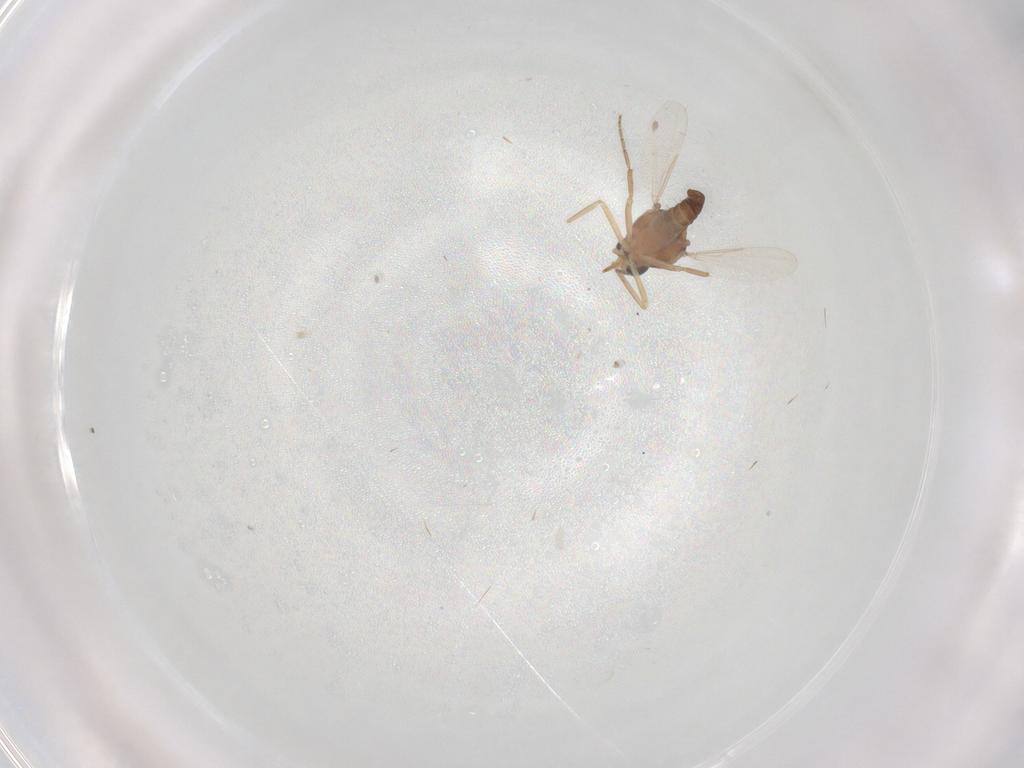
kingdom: Animalia
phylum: Arthropoda
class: Insecta
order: Diptera
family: Ceratopogonidae
